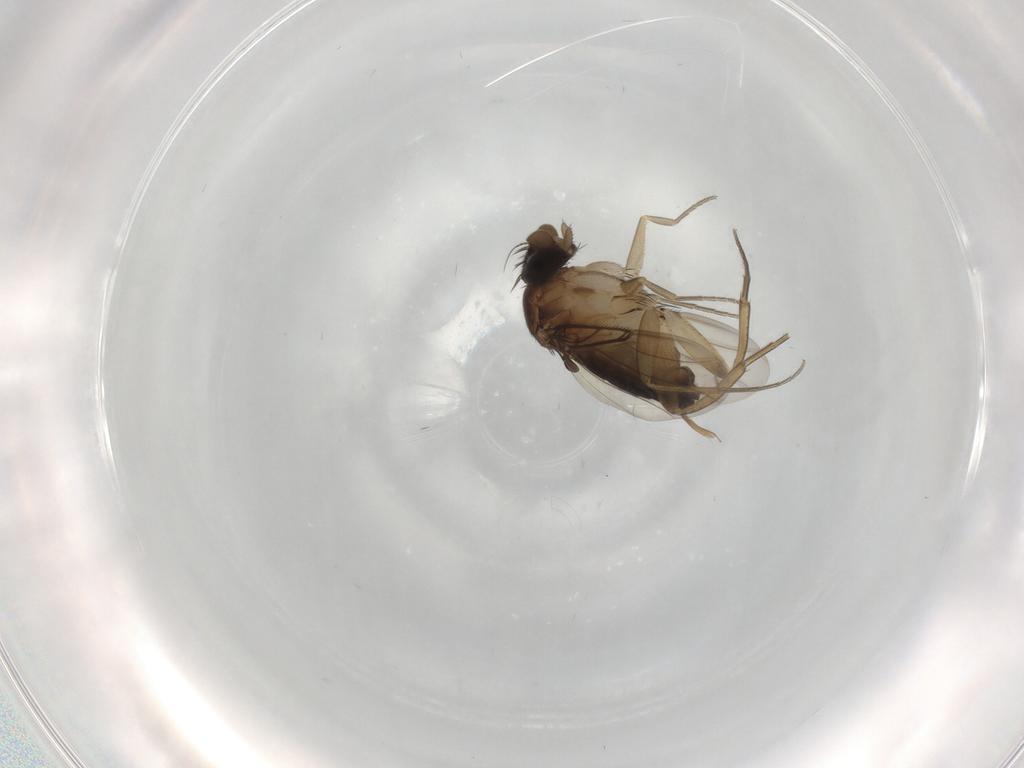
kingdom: Animalia
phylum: Arthropoda
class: Insecta
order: Diptera
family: Phoridae
